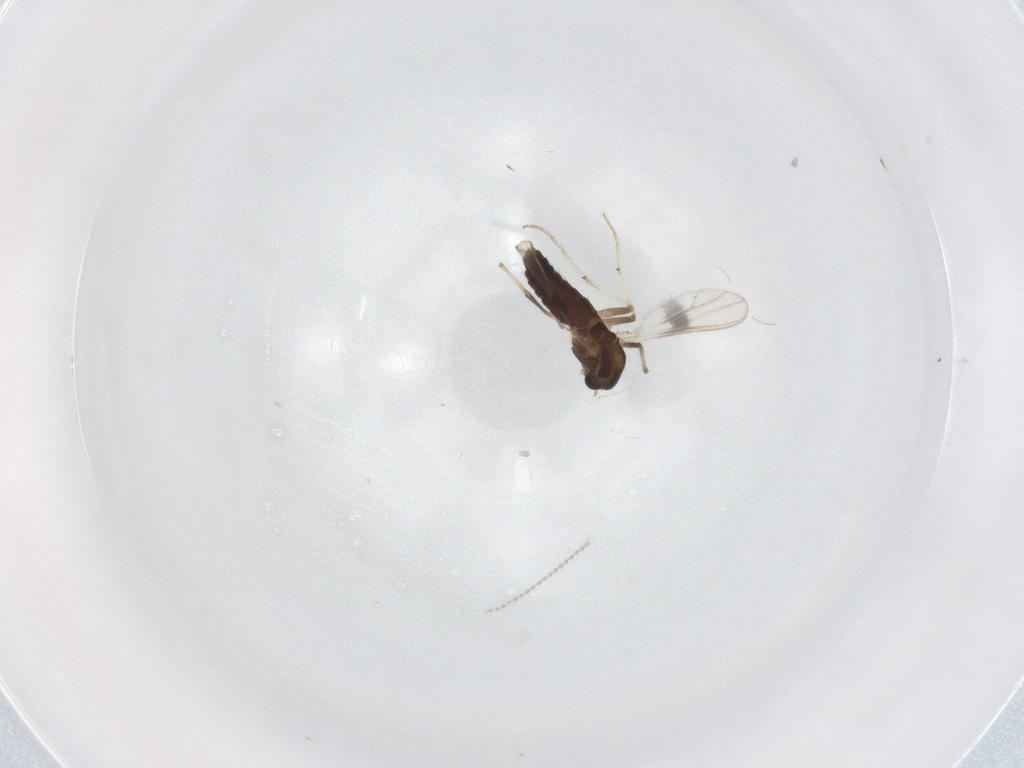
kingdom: Animalia
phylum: Arthropoda
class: Insecta
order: Diptera
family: Chironomidae
